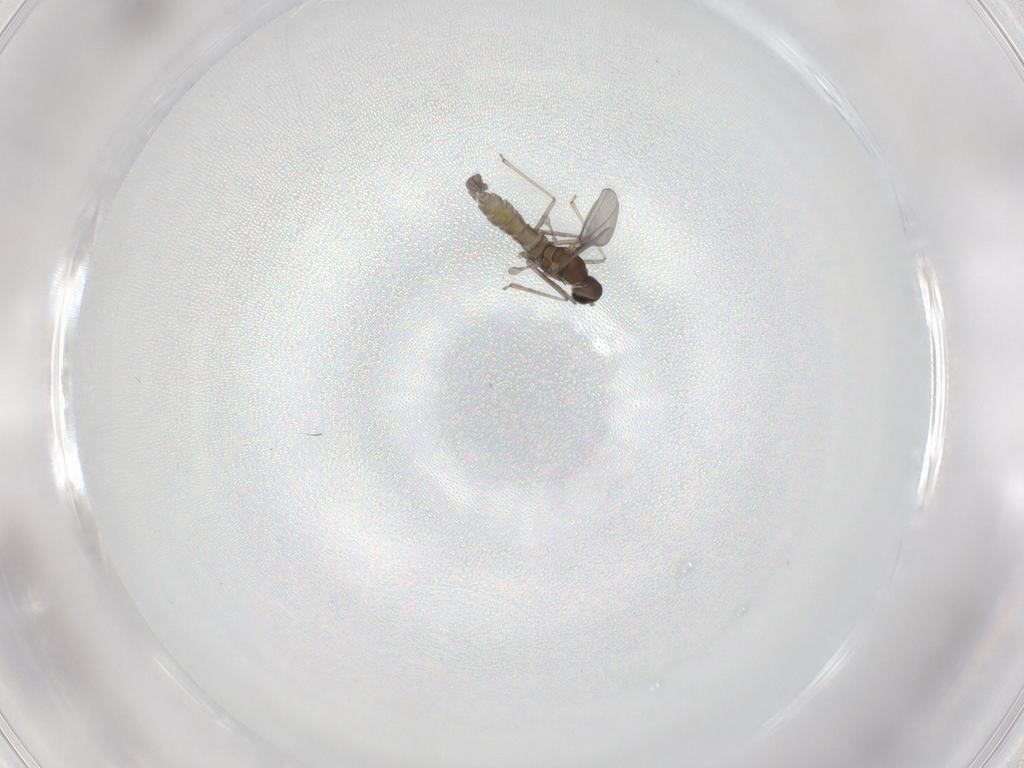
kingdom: Animalia
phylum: Arthropoda
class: Insecta
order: Diptera
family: Cecidomyiidae
